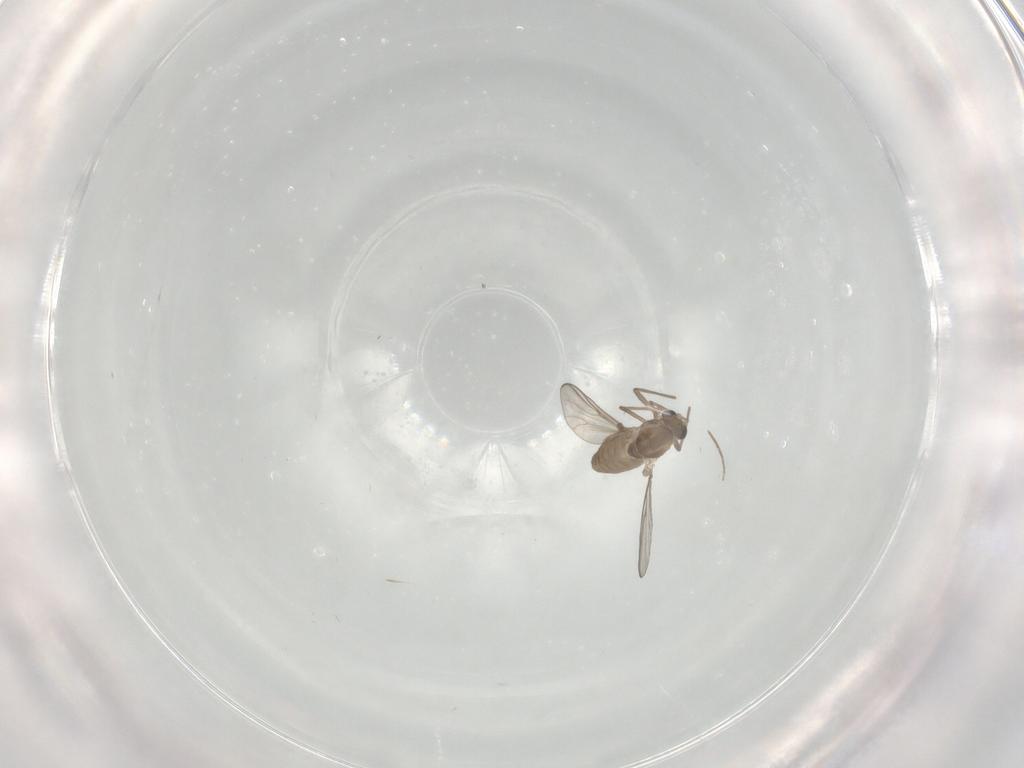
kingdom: Animalia
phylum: Arthropoda
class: Insecta
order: Diptera
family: Chironomidae
